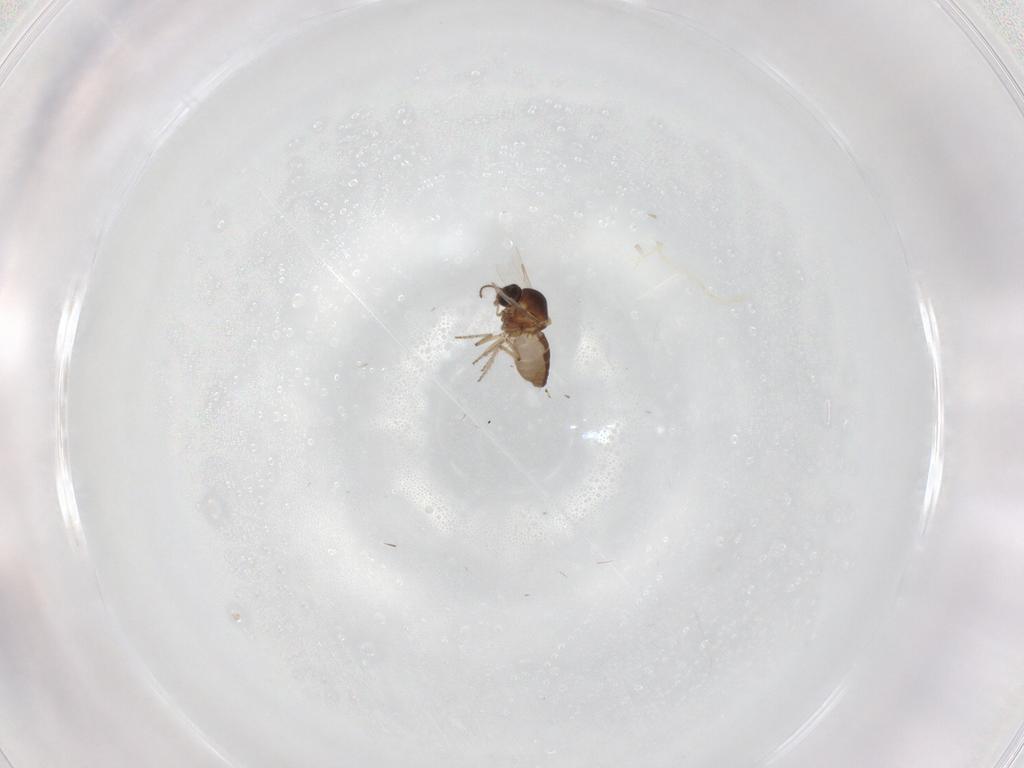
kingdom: Animalia
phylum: Arthropoda
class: Insecta
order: Diptera
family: Ceratopogonidae
